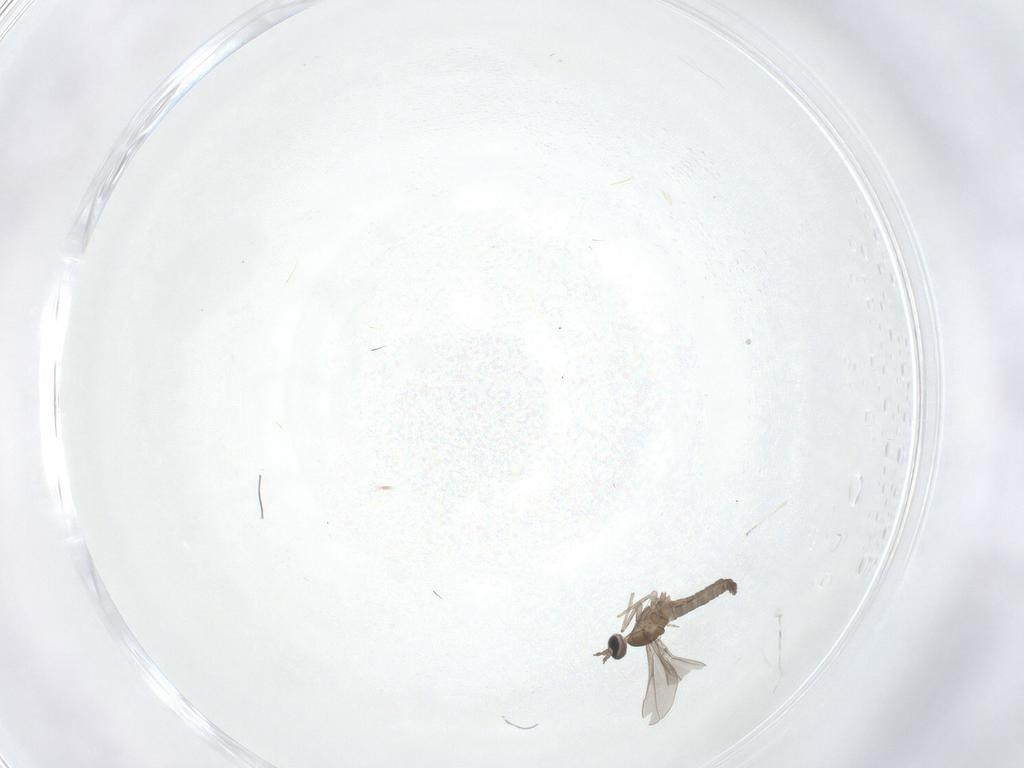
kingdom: Animalia
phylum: Arthropoda
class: Insecta
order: Diptera
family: Cecidomyiidae
